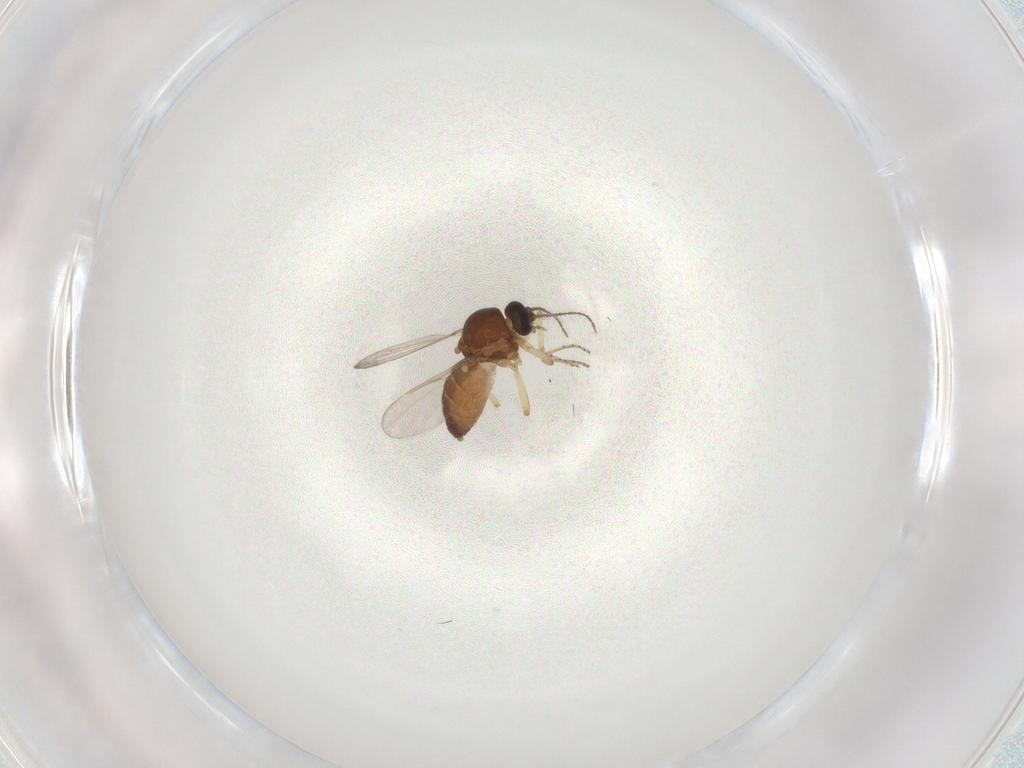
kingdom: Animalia
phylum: Arthropoda
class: Insecta
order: Diptera
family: Ceratopogonidae
